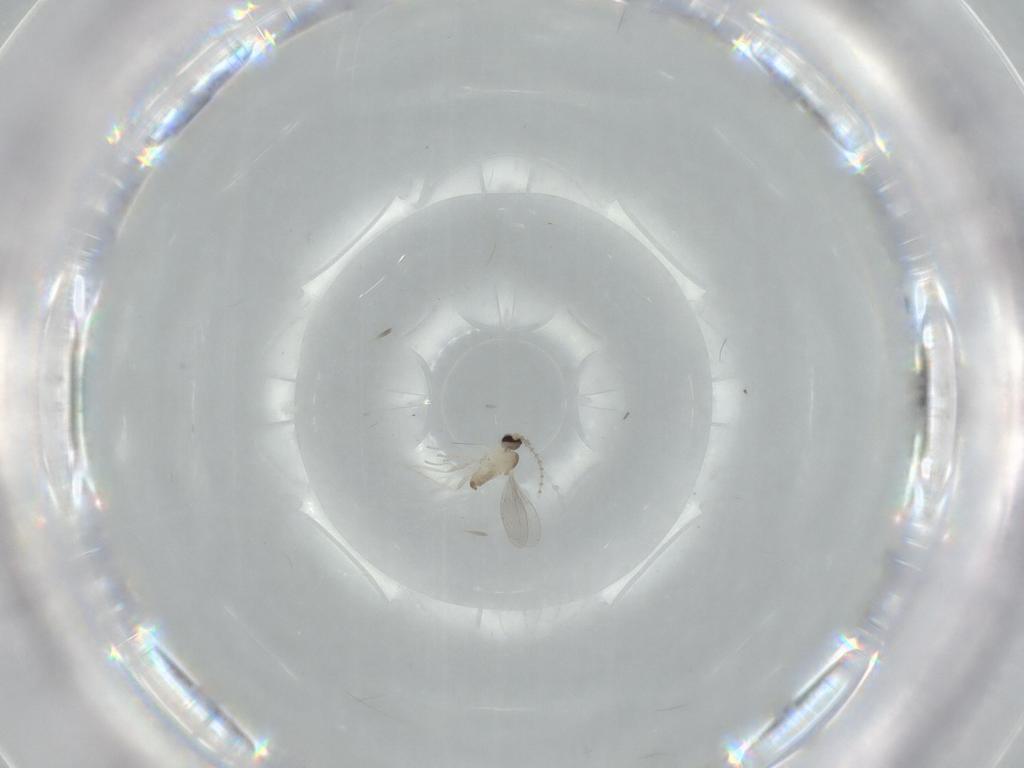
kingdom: Animalia
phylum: Arthropoda
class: Insecta
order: Diptera
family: Cecidomyiidae
